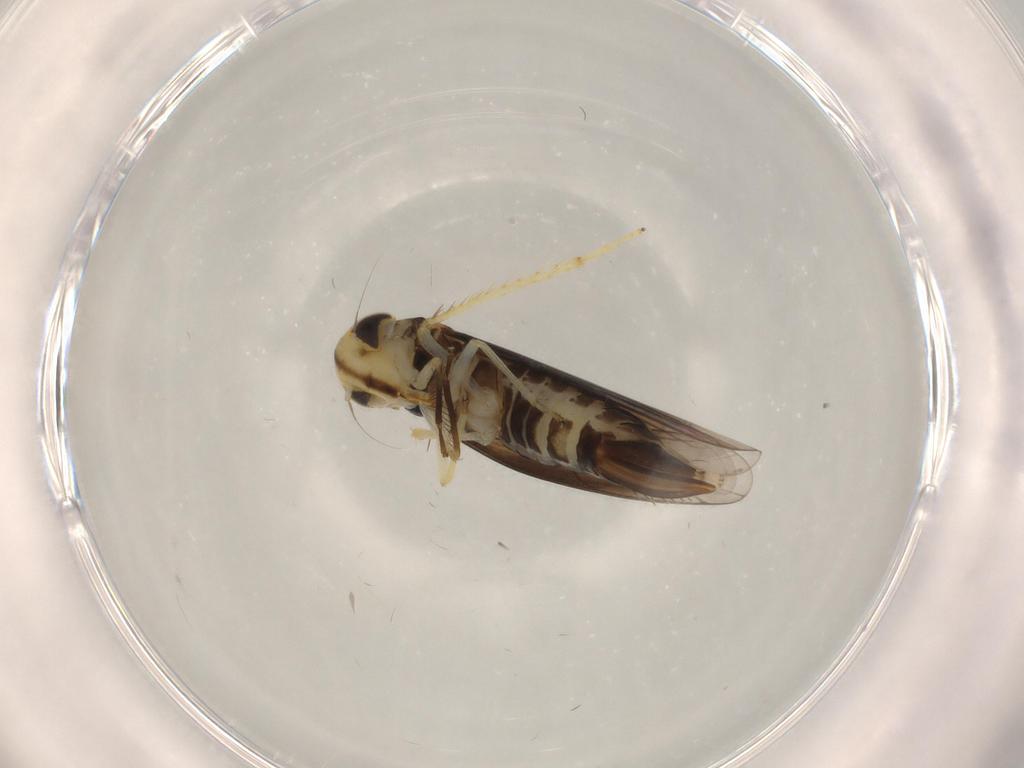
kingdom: Animalia
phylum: Arthropoda
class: Insecta
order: Hemiptera
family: Cicadellidae
